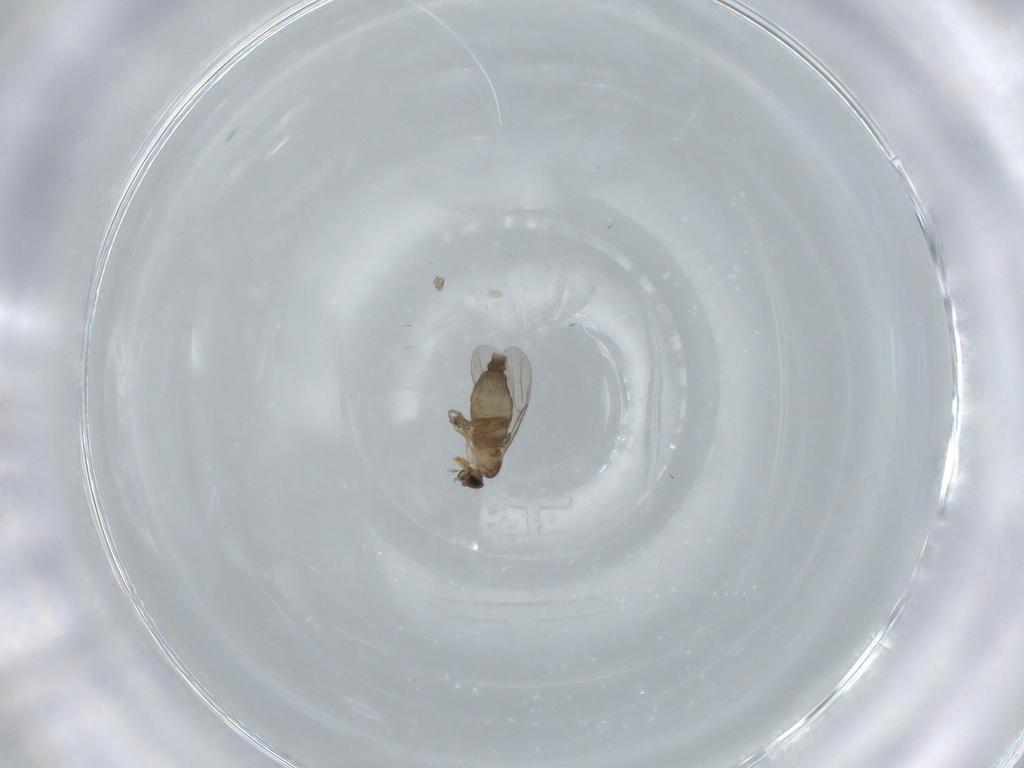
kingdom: Animalia
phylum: Arthropoda
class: Insecta
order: Diptera
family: Phoridae
